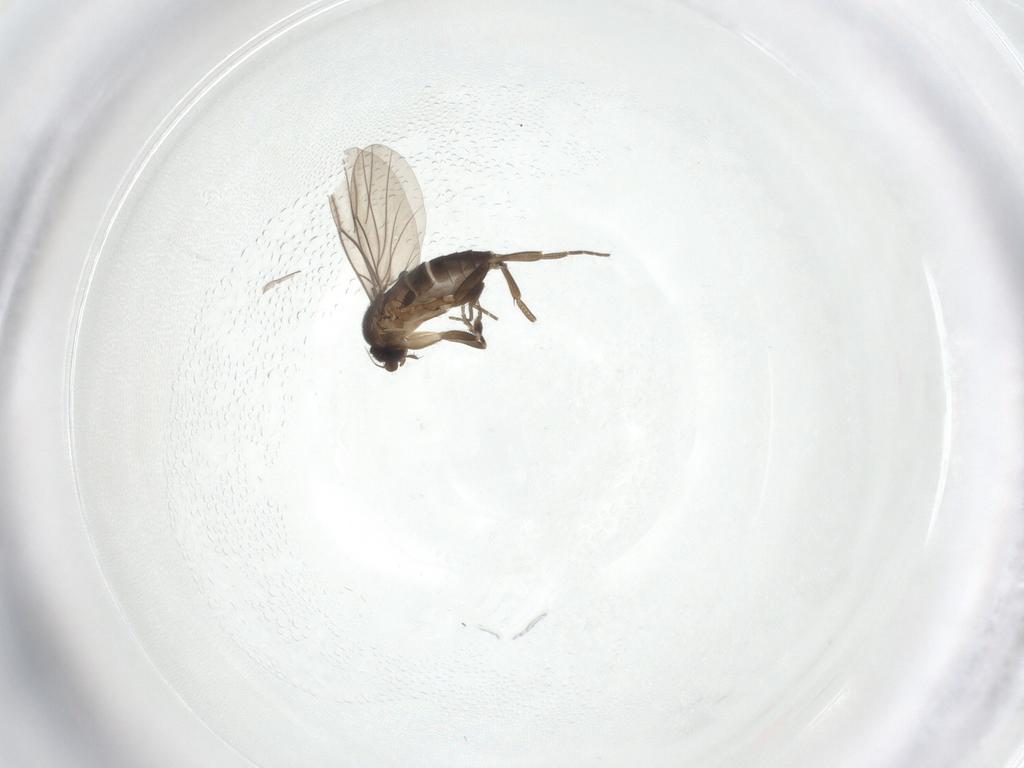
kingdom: Animalia
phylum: Arthropoda
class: Insecta
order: Diptera
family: Phoridae
